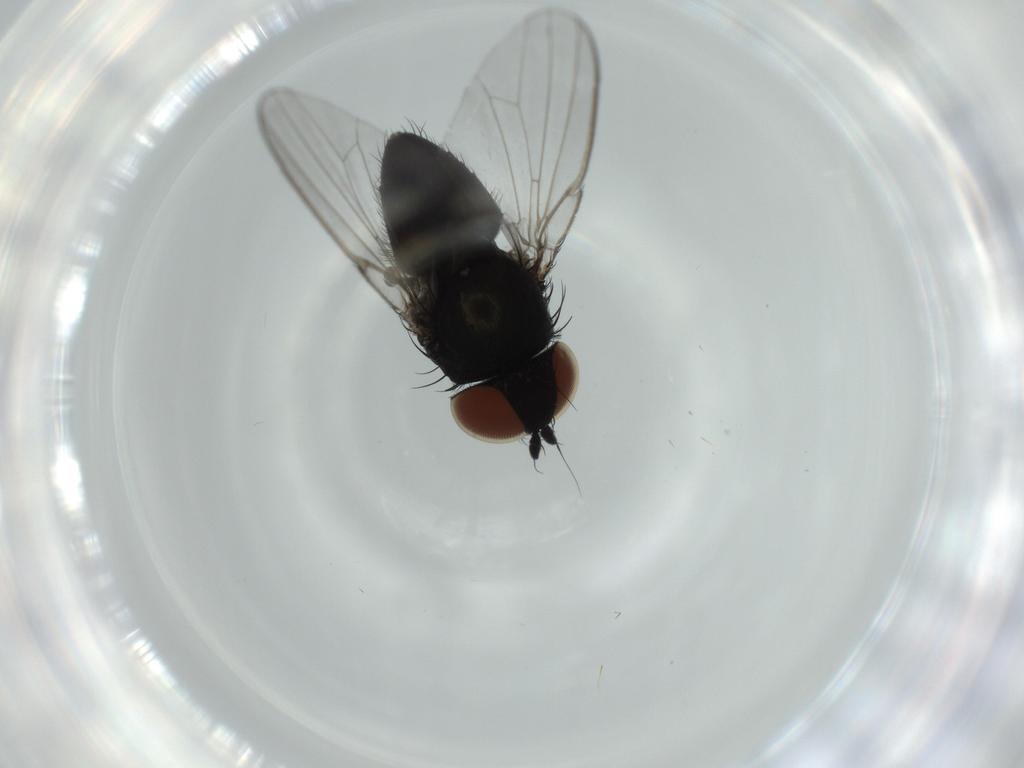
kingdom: Animalia
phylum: Arthropoda
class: Insecta
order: Diptera
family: Milichiidae
